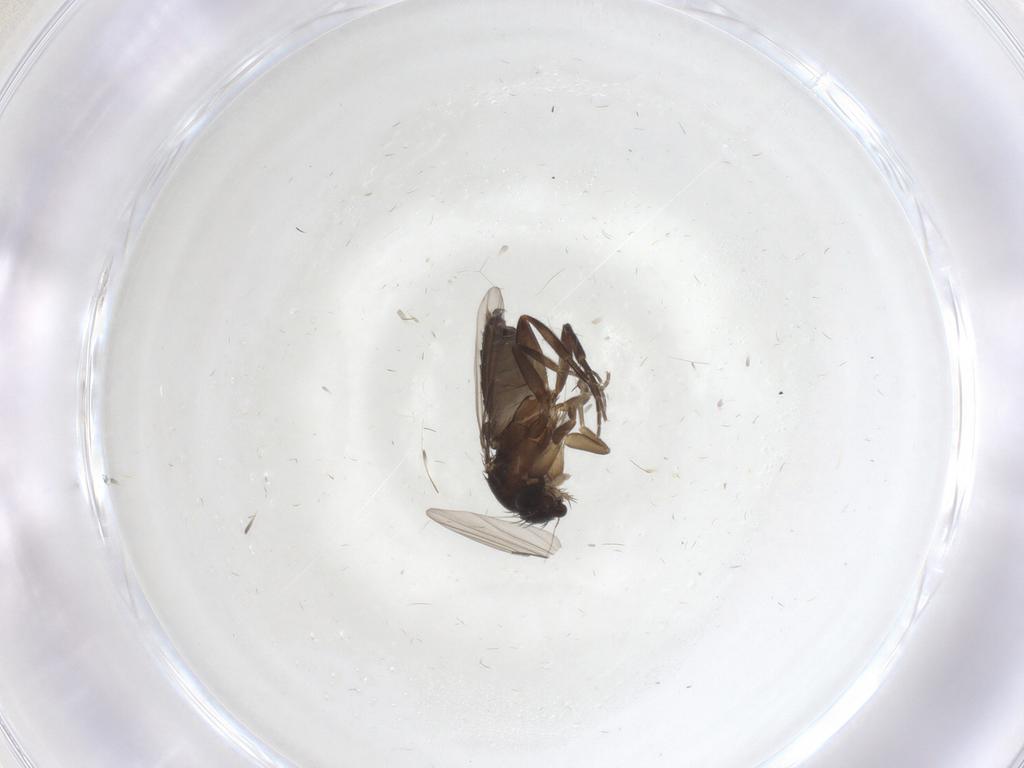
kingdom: Animalia
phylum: Arthropoda
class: Insecta
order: Diptera
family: Phoridae
